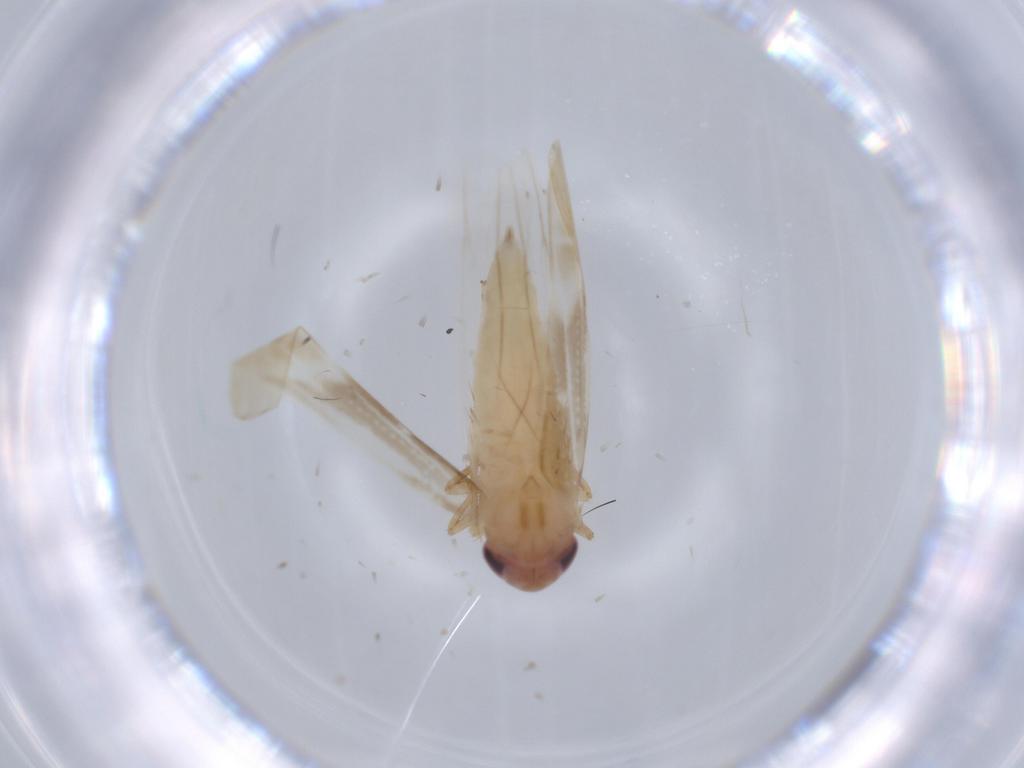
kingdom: Animalia
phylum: Arthropoda
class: Insecta
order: Hemiptera
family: Cicadellidae
